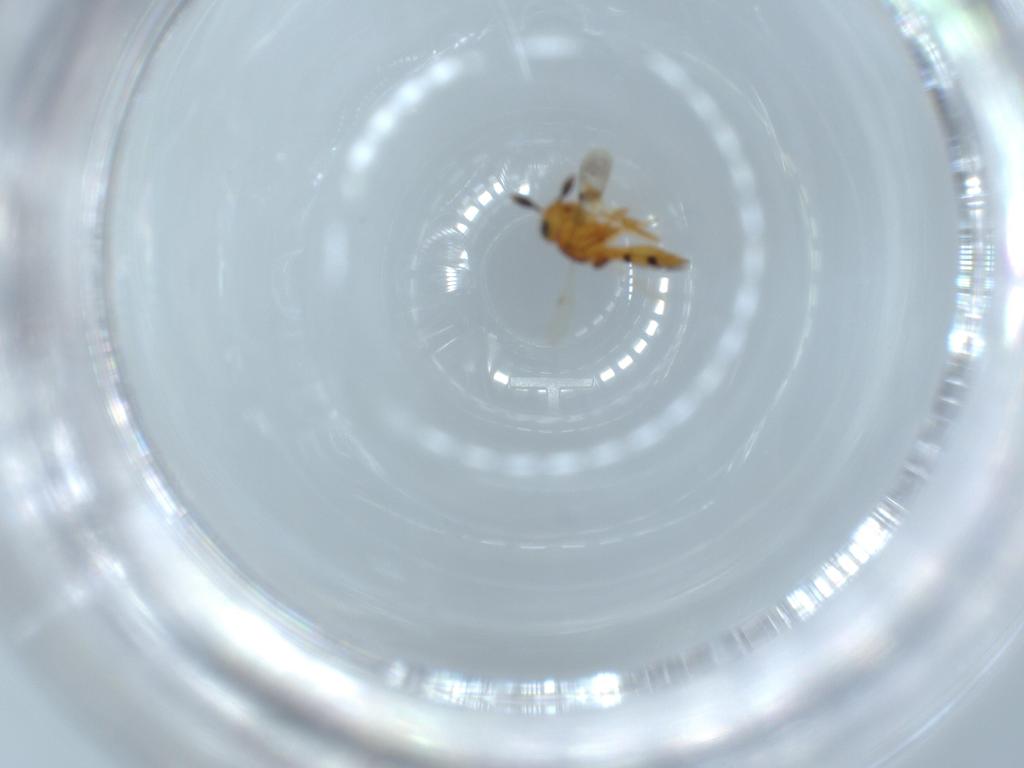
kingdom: Animalia
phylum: Arthropoda
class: Insecta
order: Hymenoptera
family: Scelionidae
